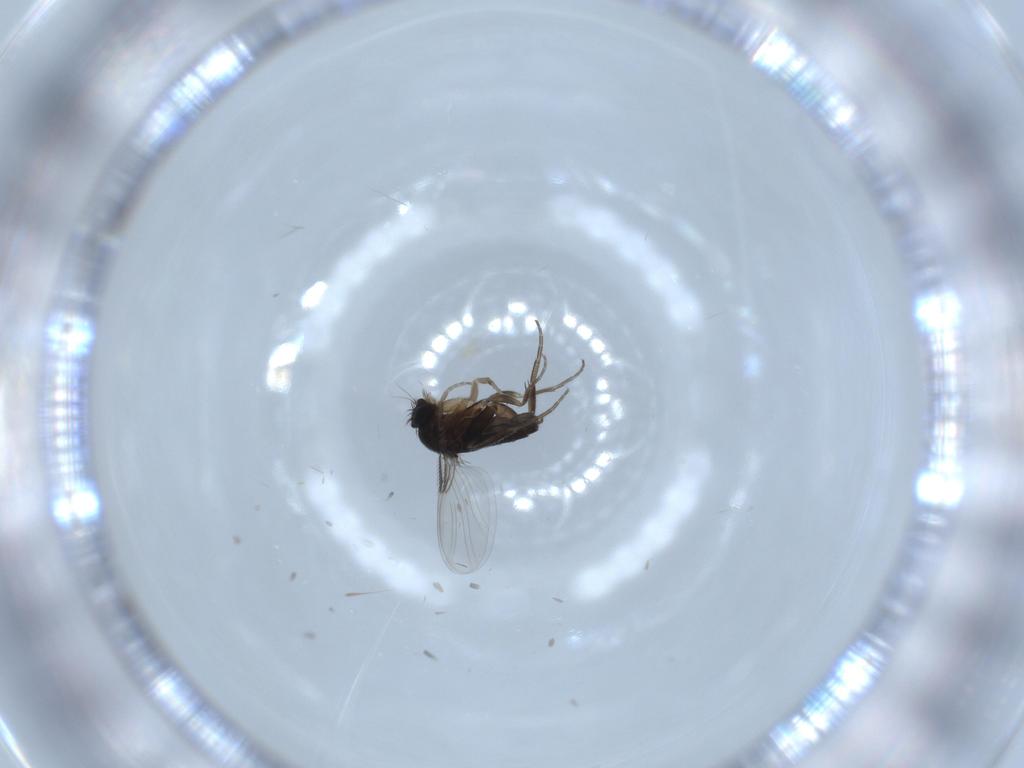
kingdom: Animalia
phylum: Arthropoda
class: Insecta
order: Diptera
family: Phoridae
